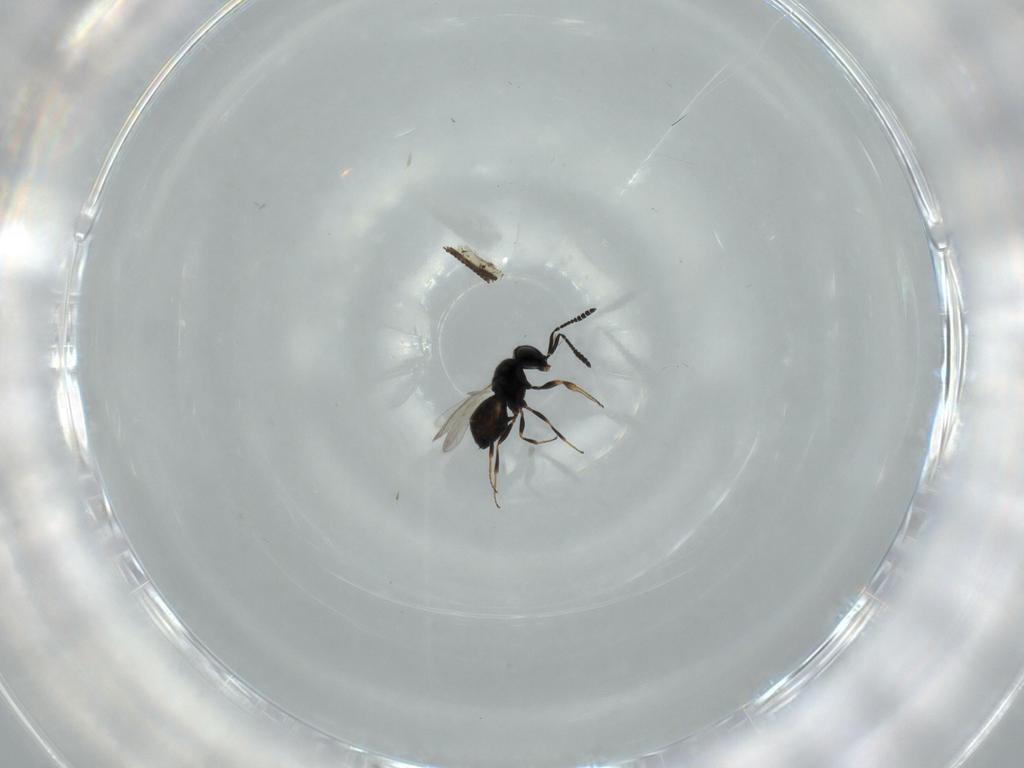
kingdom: Animalia
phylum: Arthropoda
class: Insecta
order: Hymenoptera
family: Scelionidae
